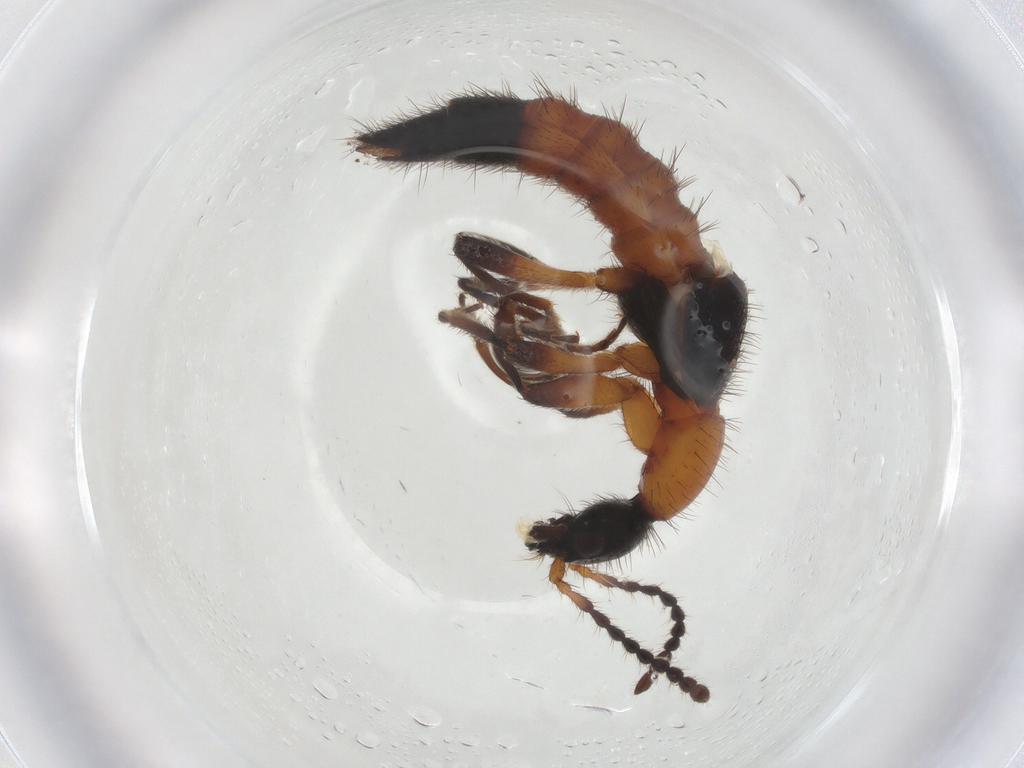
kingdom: Animalia
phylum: Arthropoda
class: Insecta
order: Coleoptera
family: Staphylinidae
